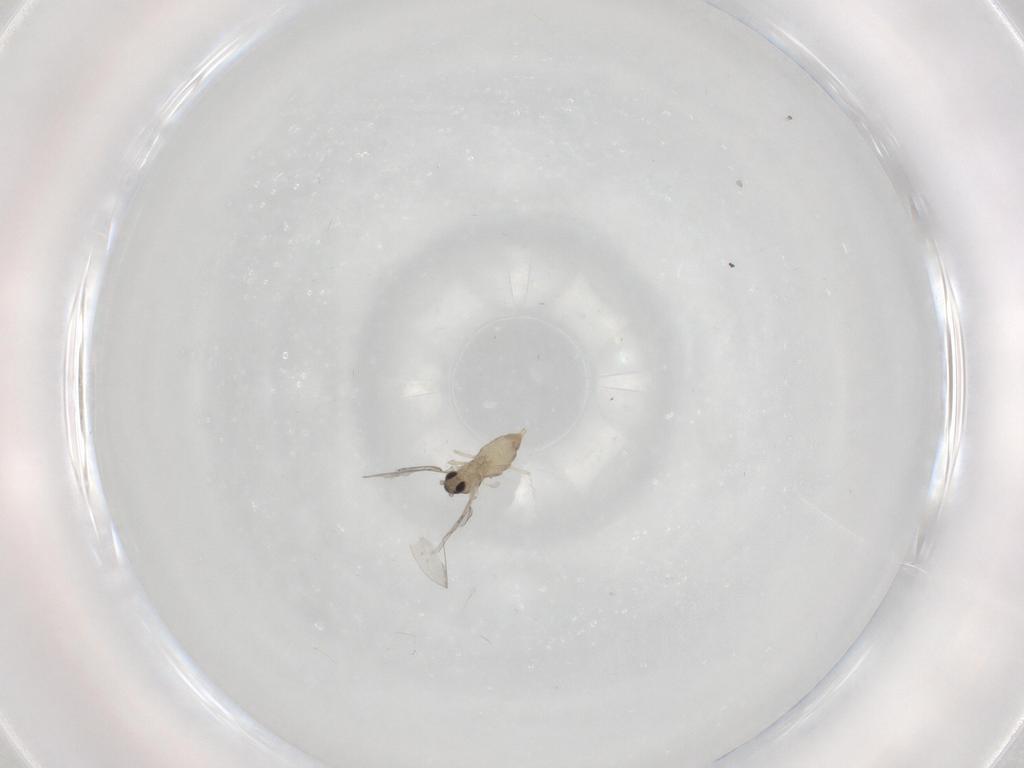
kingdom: Animalia
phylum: Arthropoda
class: Insecta
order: Diptera
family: Cecidomyiidae
